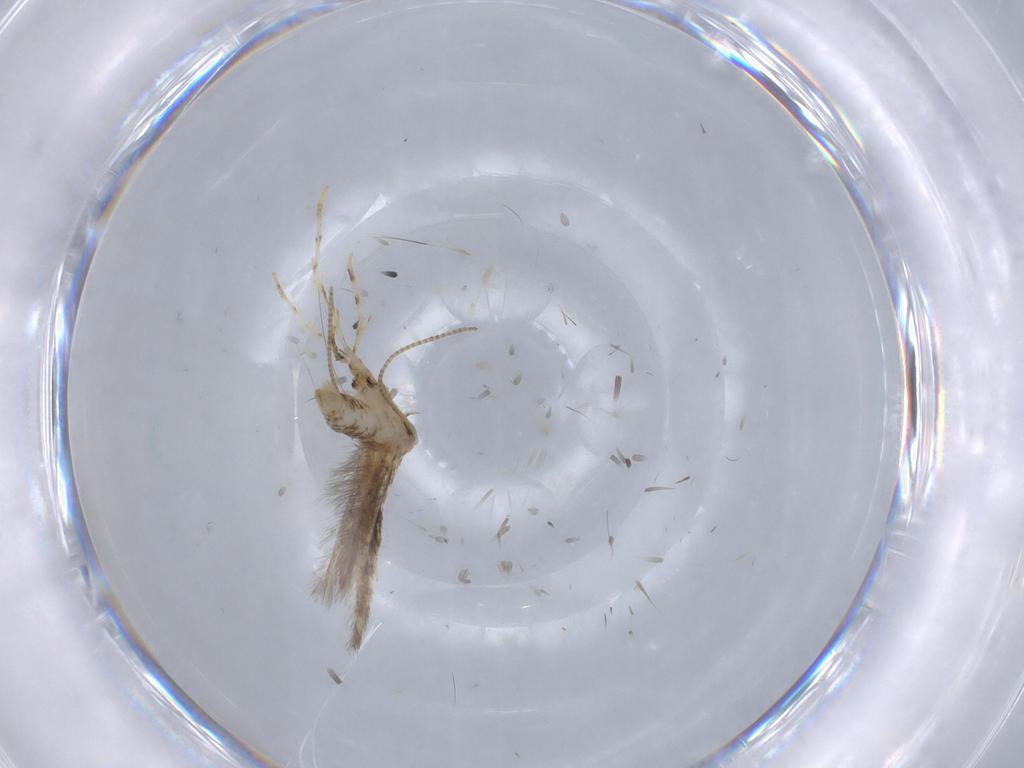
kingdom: Animalia
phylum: Arthropoda
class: Insecta
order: Lepidoptera
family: Gracillariidae
